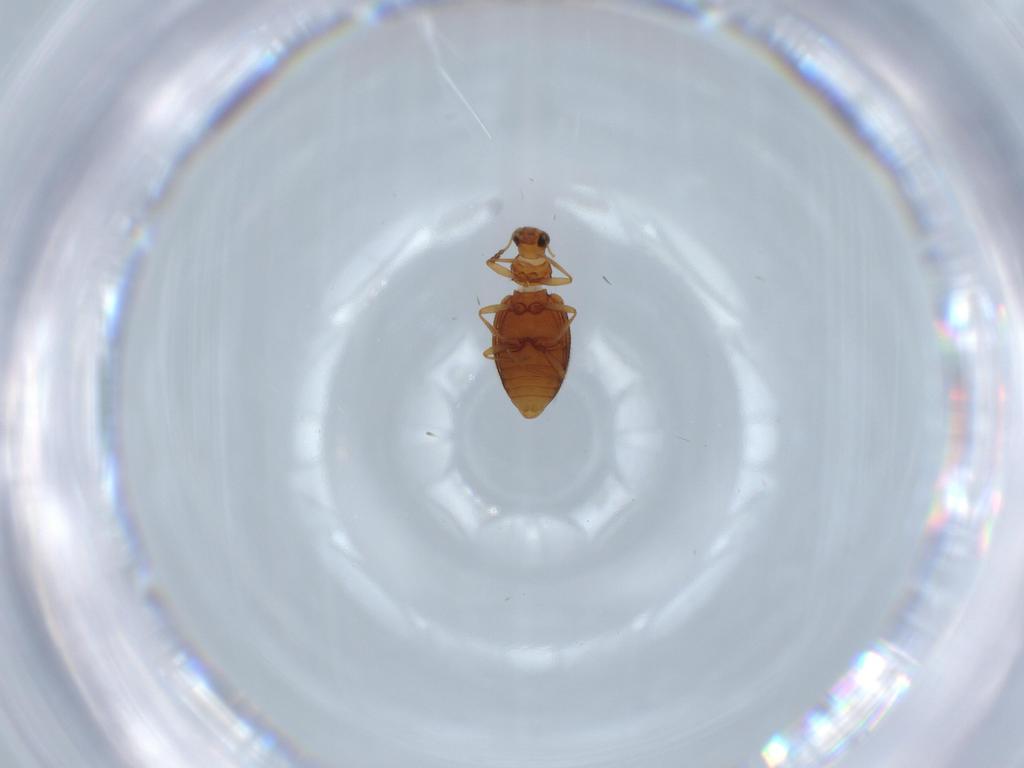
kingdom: Animalia
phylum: Arthropoda
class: Insecta
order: Coleoptera
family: Latridiidae
